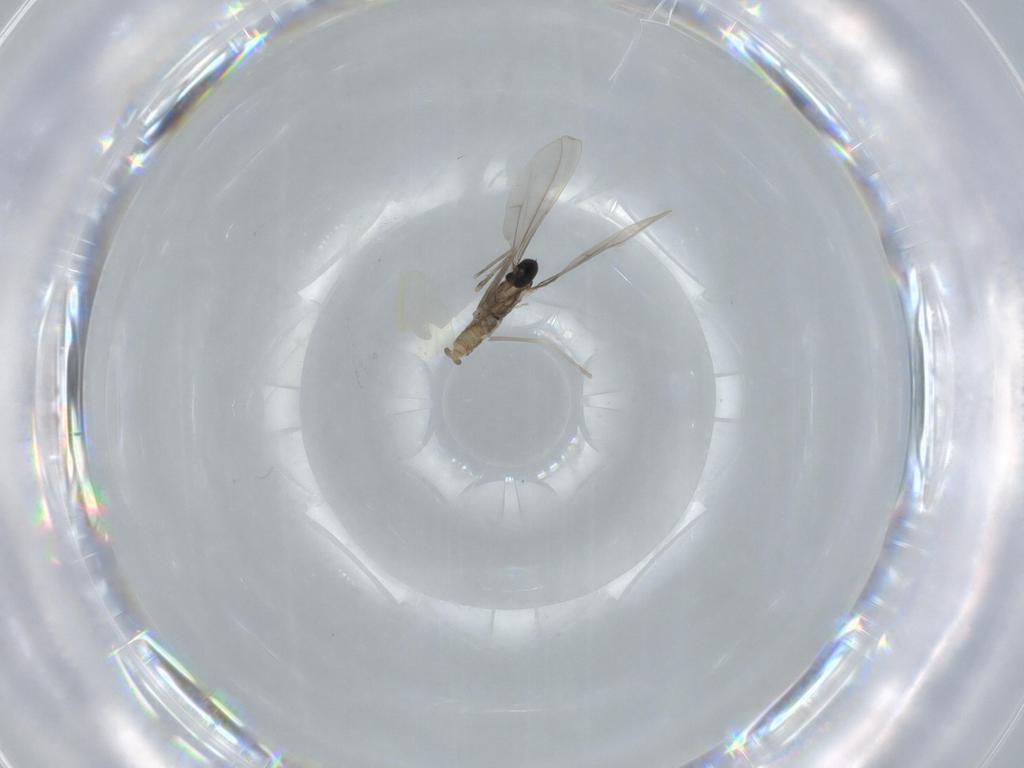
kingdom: Animalia
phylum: Arthropoda
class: Insecta
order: Diptera
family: Cecidomyiidae
